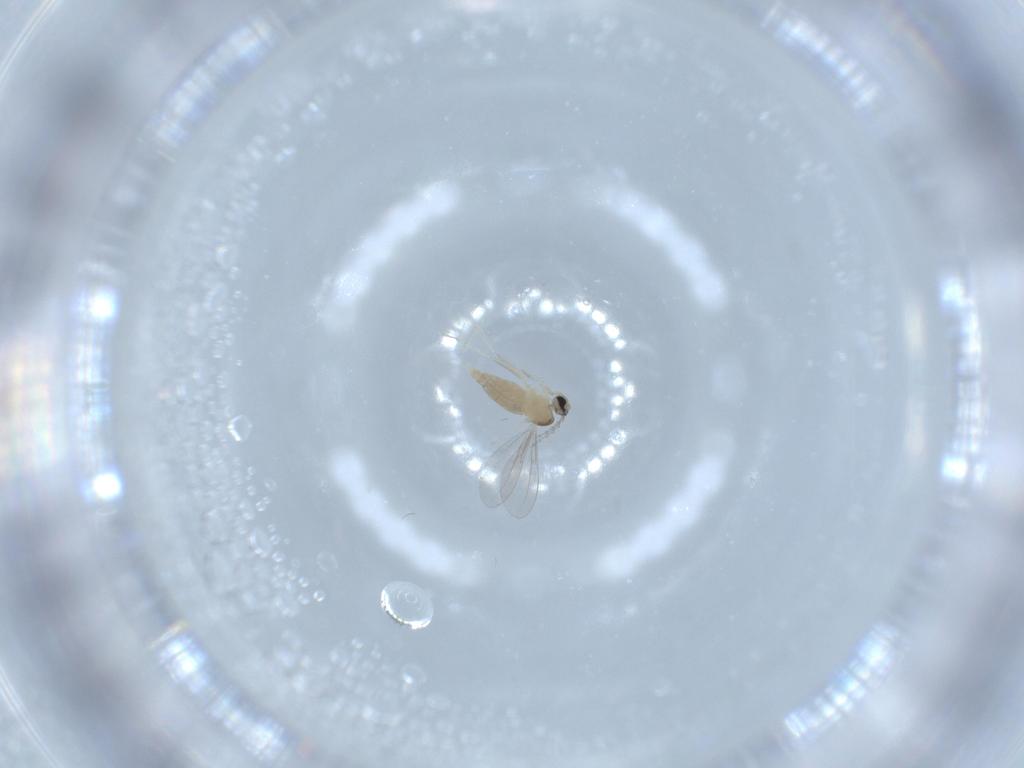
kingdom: Animalia
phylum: Arthropoda
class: Insecta
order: Diptera
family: Cecidomyiidae
